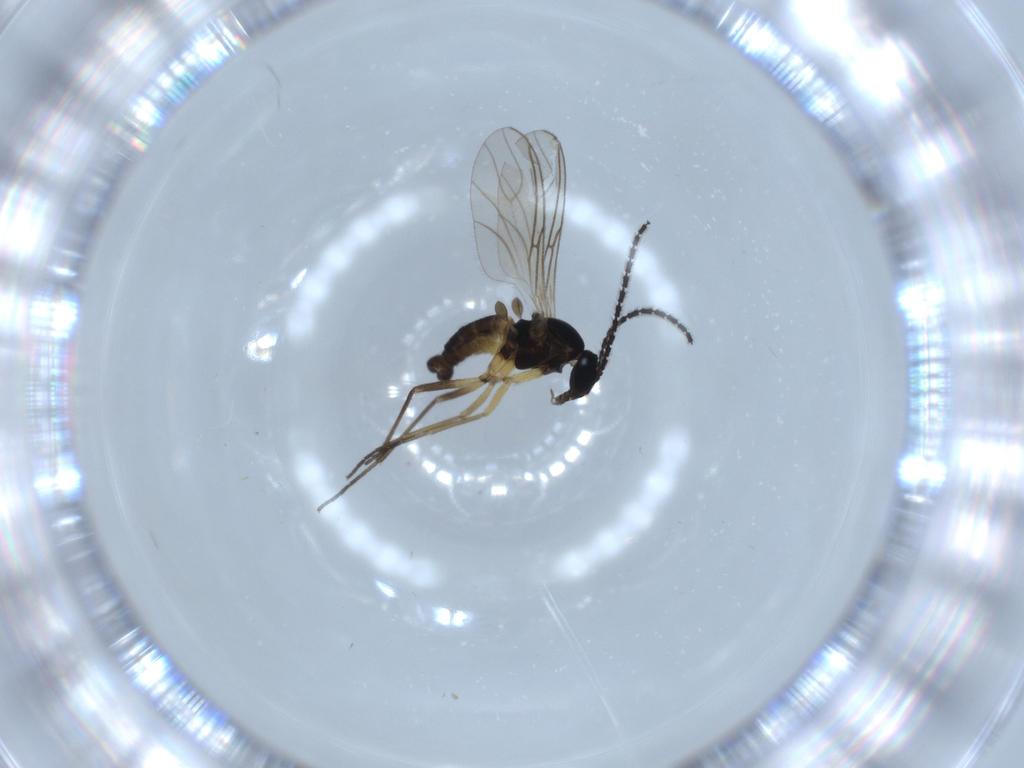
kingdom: Animalia
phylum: Arthropoda
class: Insecta
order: Diptera
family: Sciaridae
